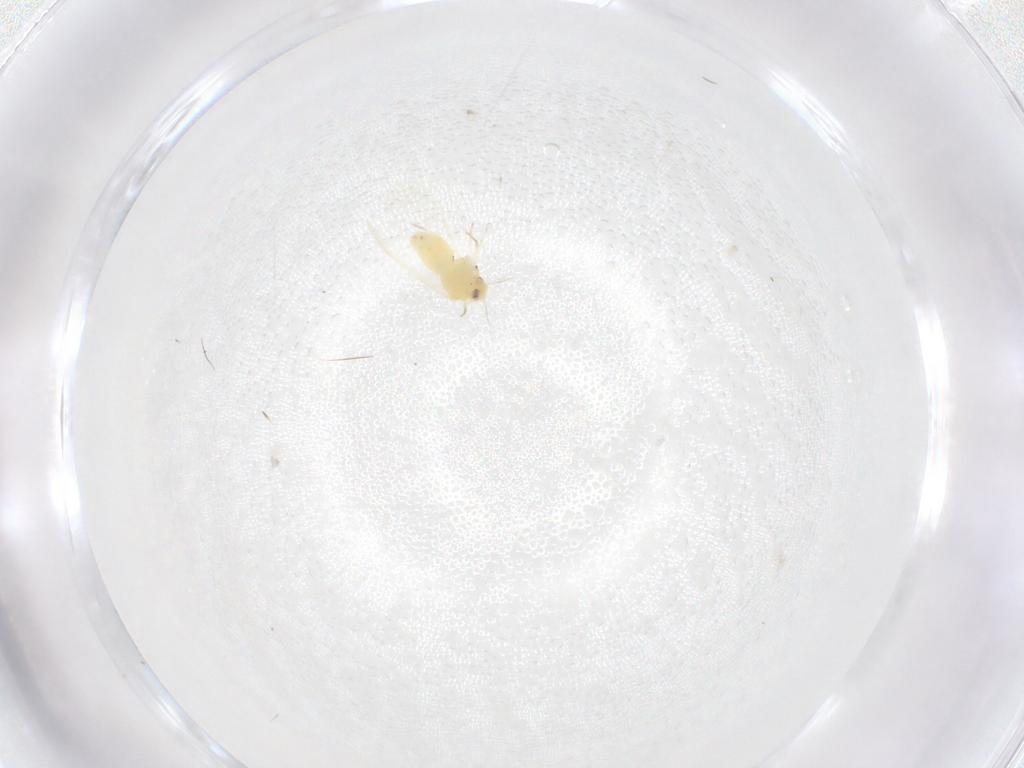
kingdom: Animalia
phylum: Arthropoda
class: Insecta
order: Hemiptera
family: Aleyrodidae
